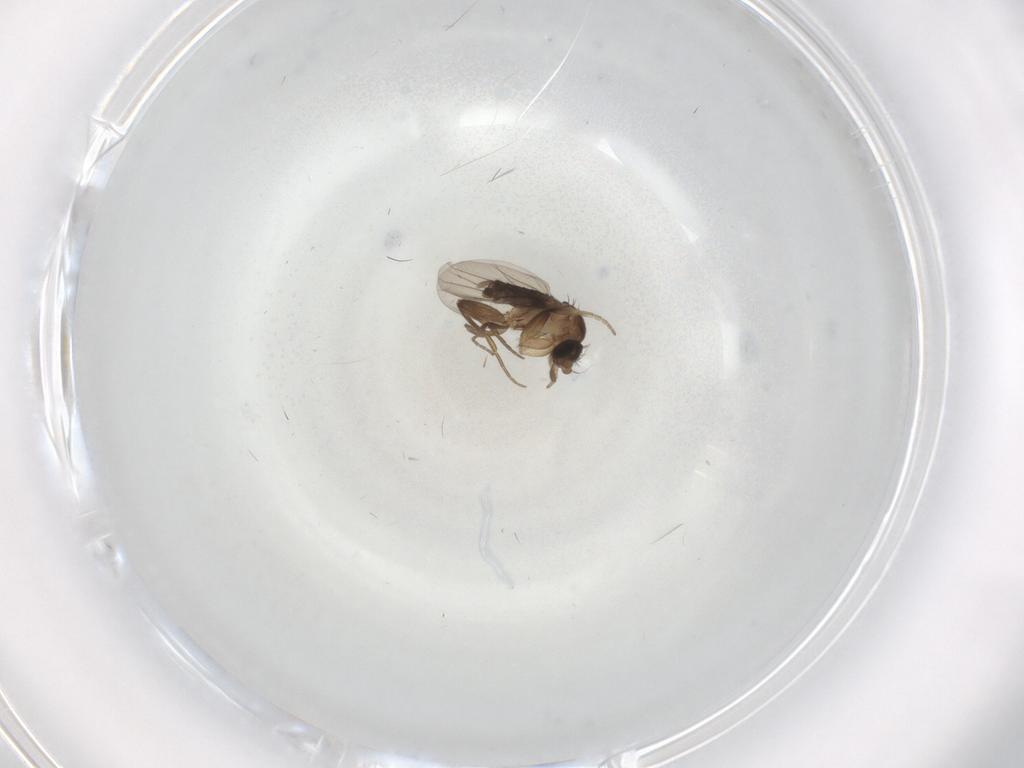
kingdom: Animalia
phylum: Arthropoda
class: Insecta
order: Diptera
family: Chironomidae
